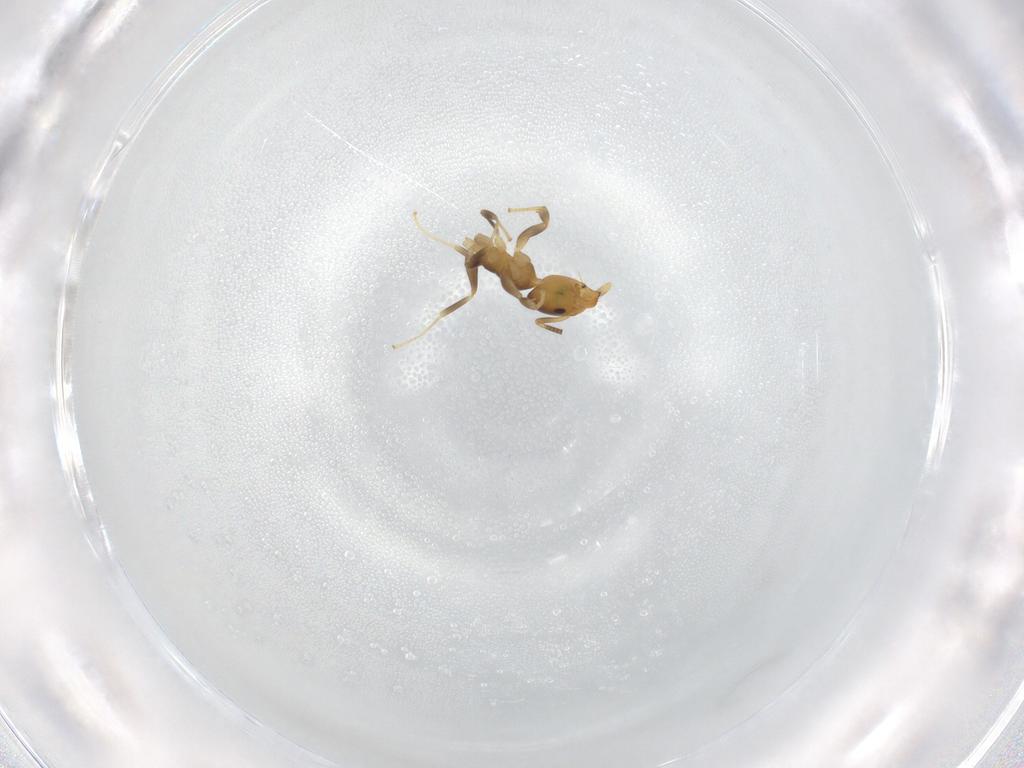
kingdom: Animalia
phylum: Arthropoda
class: Insecta
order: Hymenoptera
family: Formicidae
